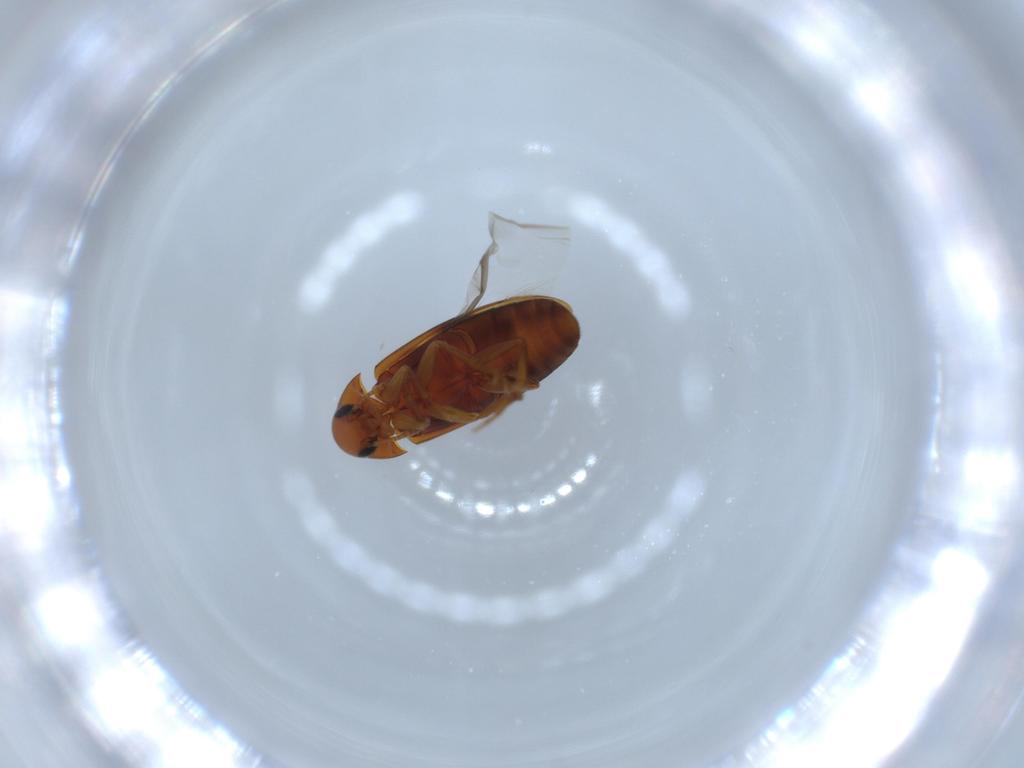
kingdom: Animalia
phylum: Arthropoda
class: Insecta
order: Coleoptera
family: Scraptiidae
